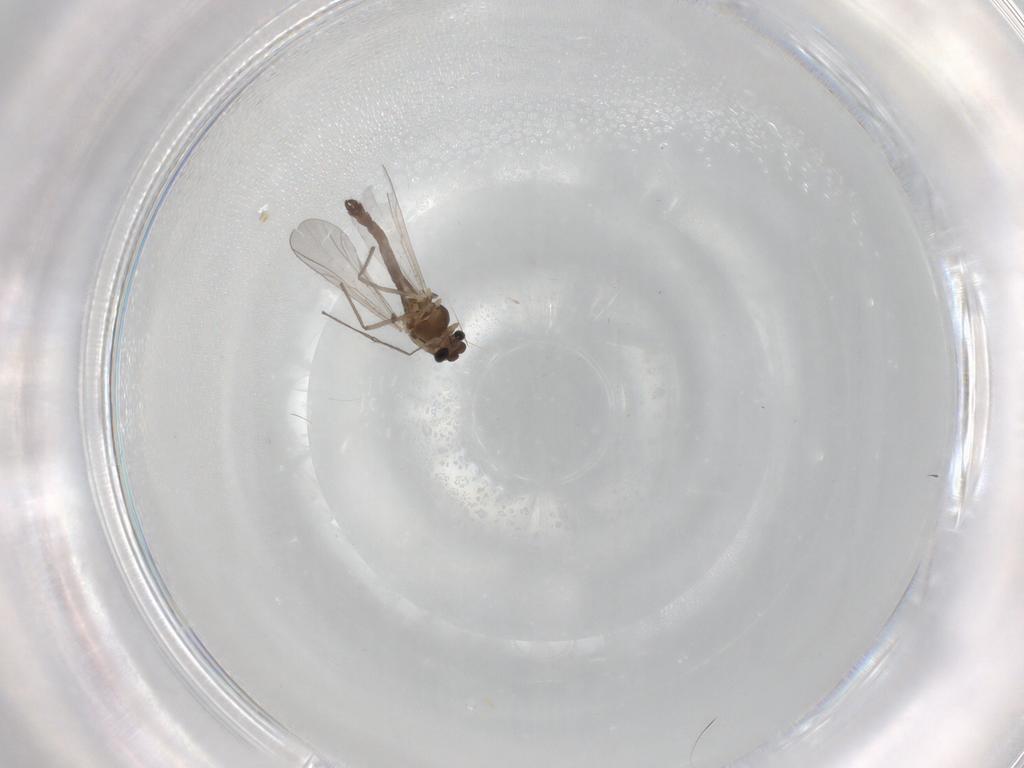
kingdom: Animalia
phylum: Arthropoda
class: Insecta
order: Diptera
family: Chironomidae
